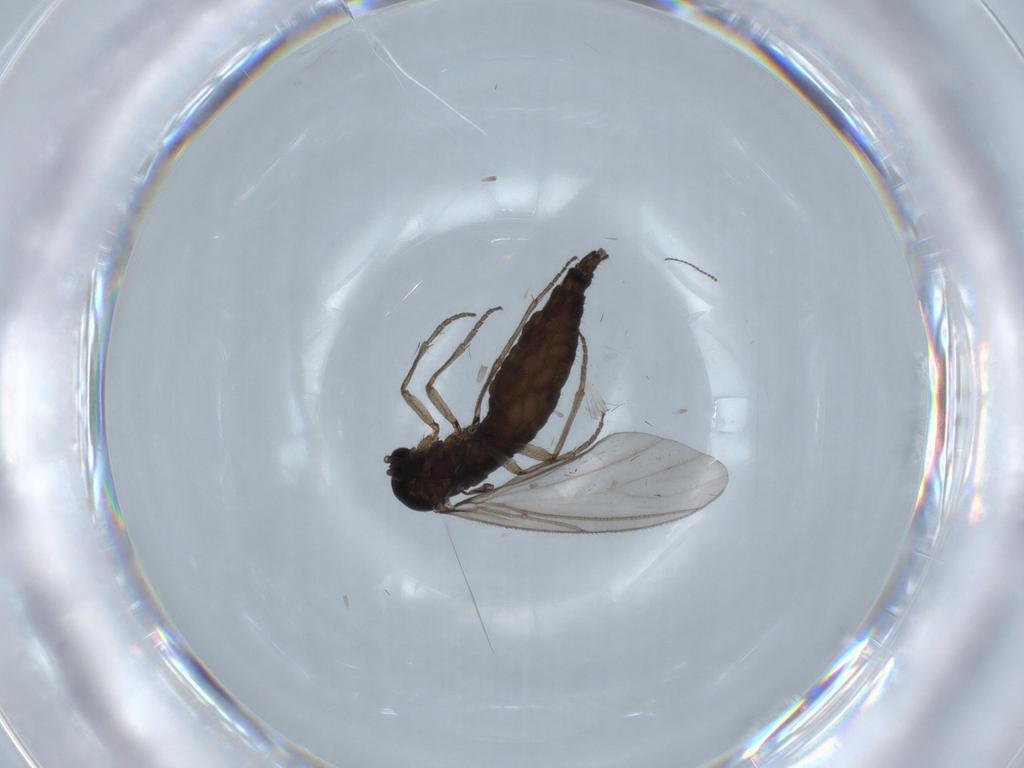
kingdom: Animalia
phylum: Arthropoda
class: Insecta
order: Diptera
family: Sciaridae
